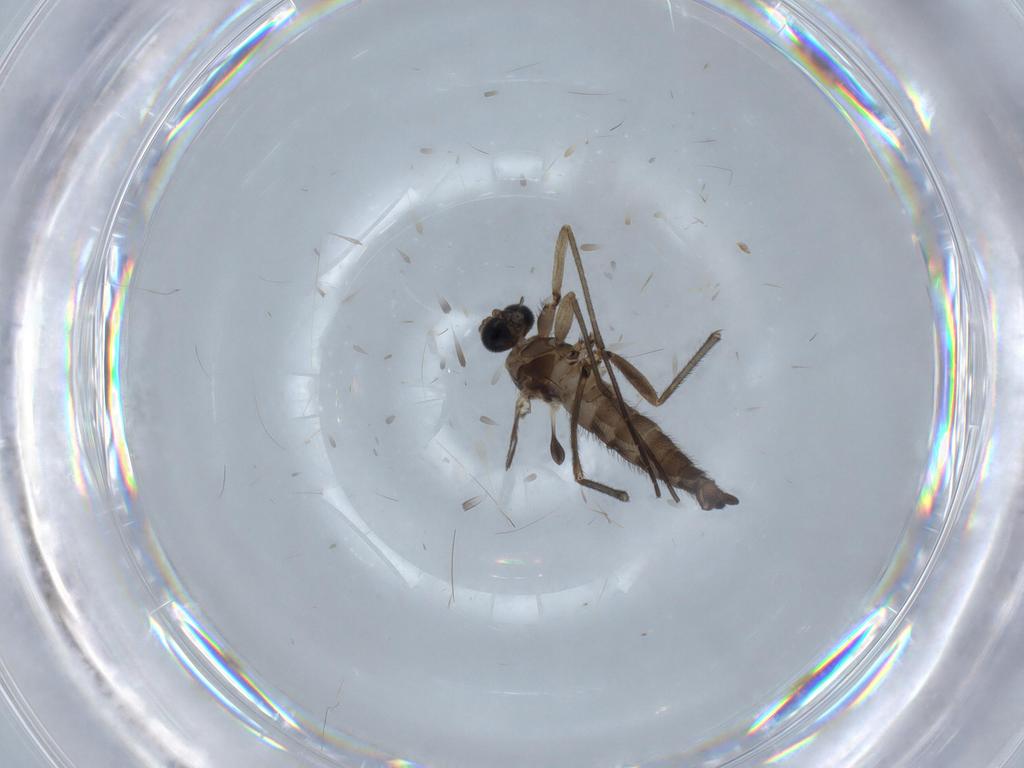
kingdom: Animalia
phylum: Arthropoda
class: Insecta
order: Diptera
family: Sciaridae
